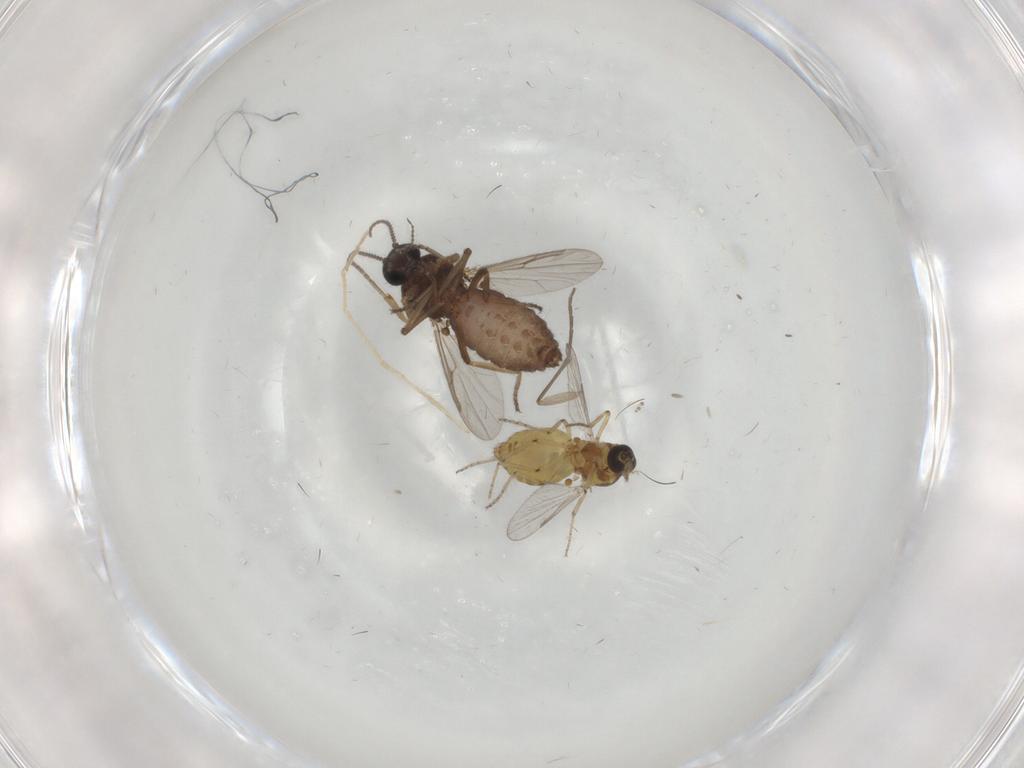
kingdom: Animalia
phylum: Arthropoda
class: Insecta
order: Diptera
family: Ceratopogonidae
